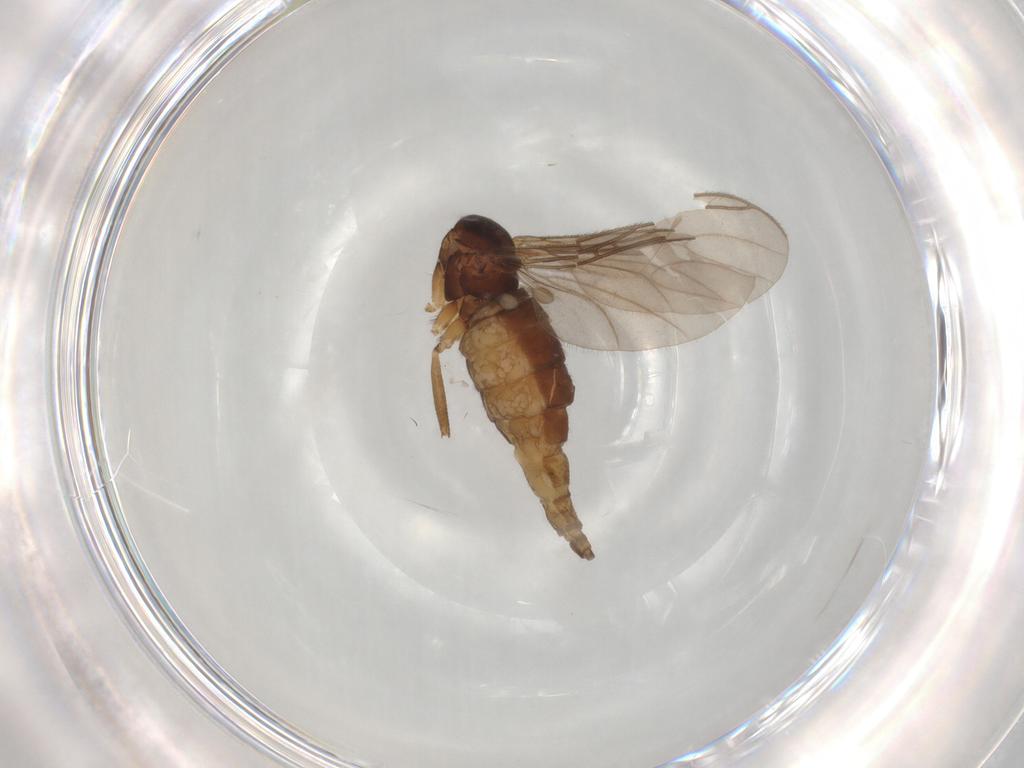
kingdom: Animalia
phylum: Arthropoda
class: Insecta
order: Diptera
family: Sciaridae
